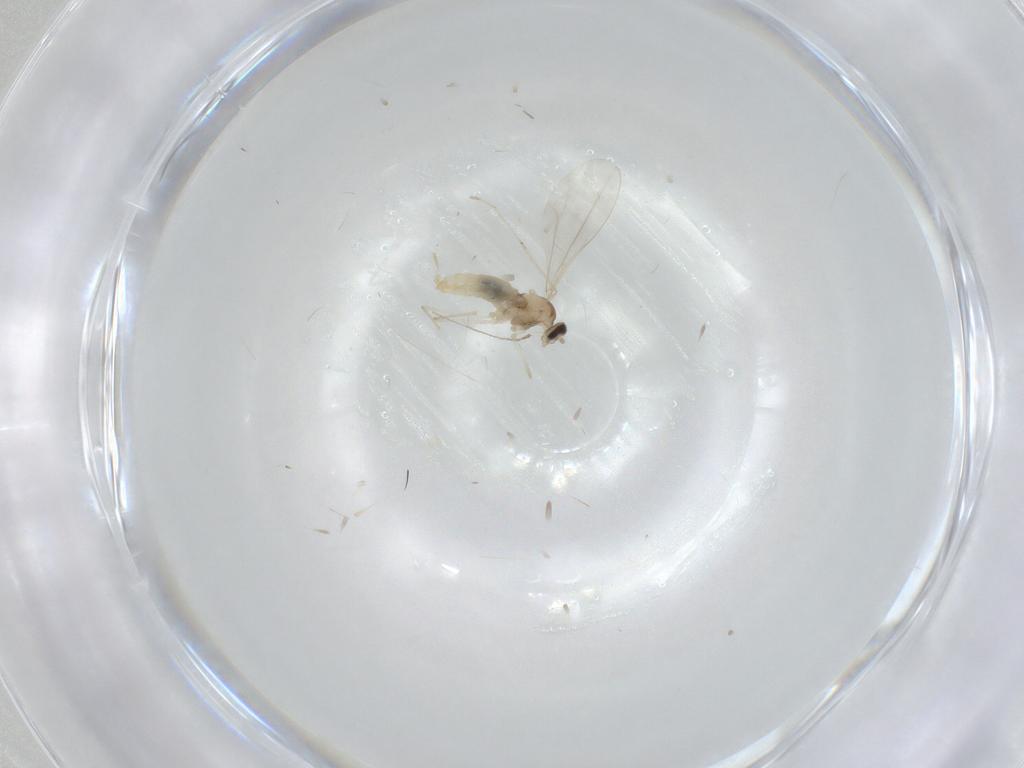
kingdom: Animalia
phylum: Arthropoda
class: Insecta
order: Diptera
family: Cecidomyiidae
